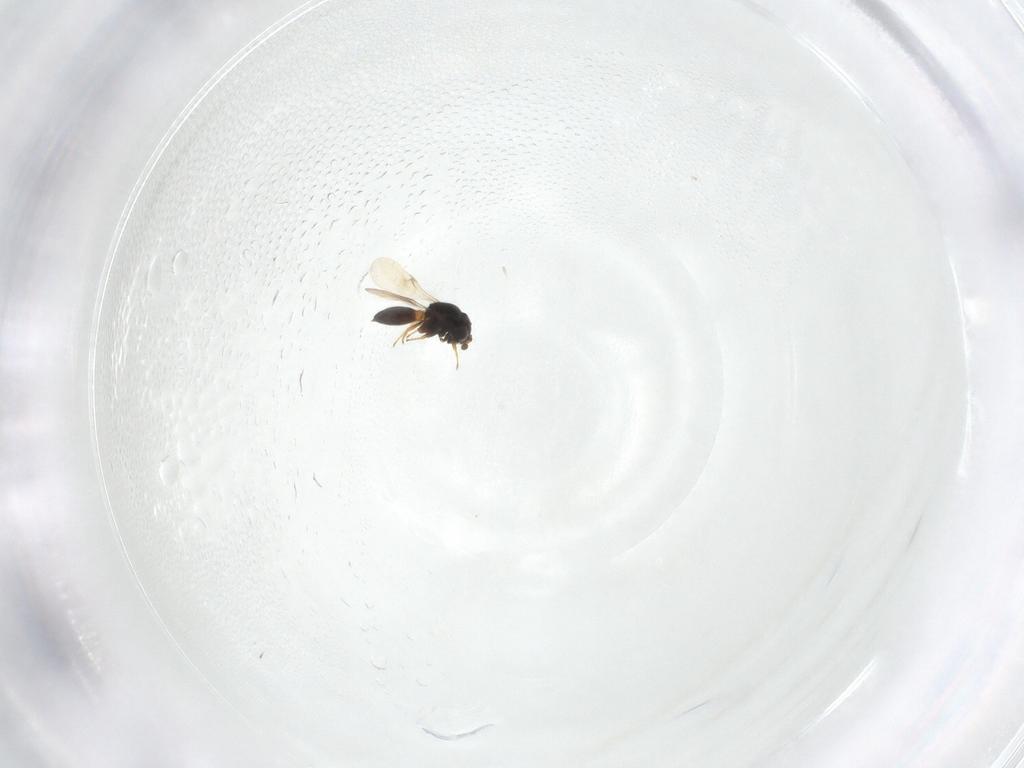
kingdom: Animalia
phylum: Arthropoda
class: Insecta
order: Hymenoptera
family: Scelionidae
